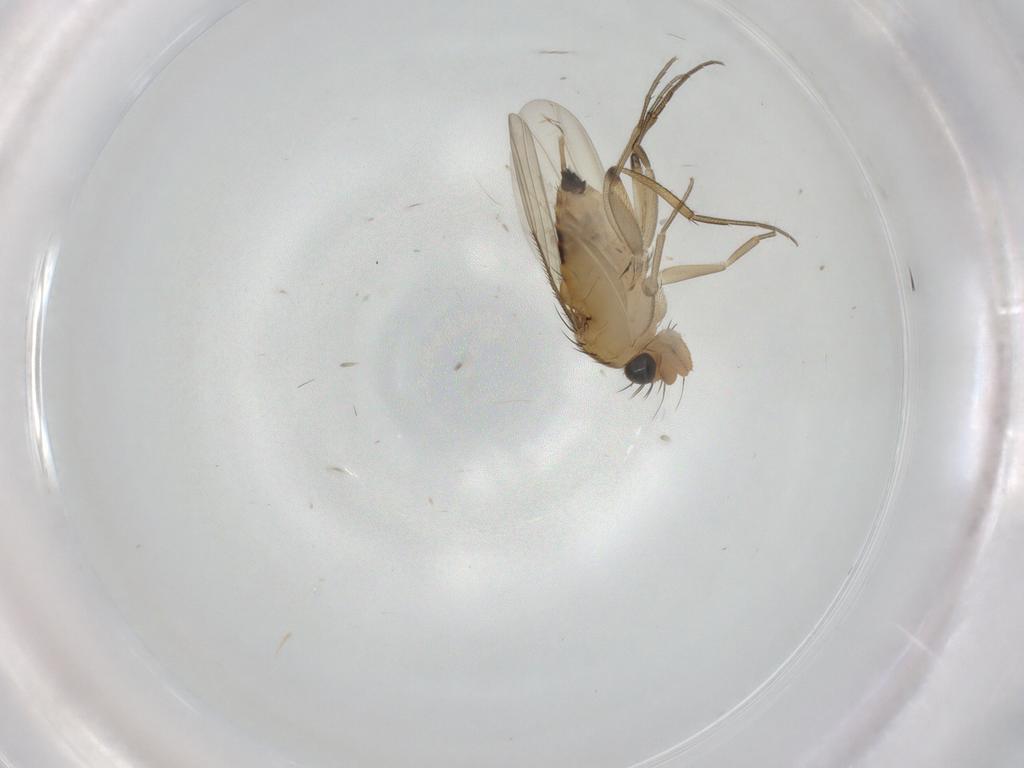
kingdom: Animalia
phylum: Arthropoda
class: Insecta
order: Diptera
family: Phoridae
